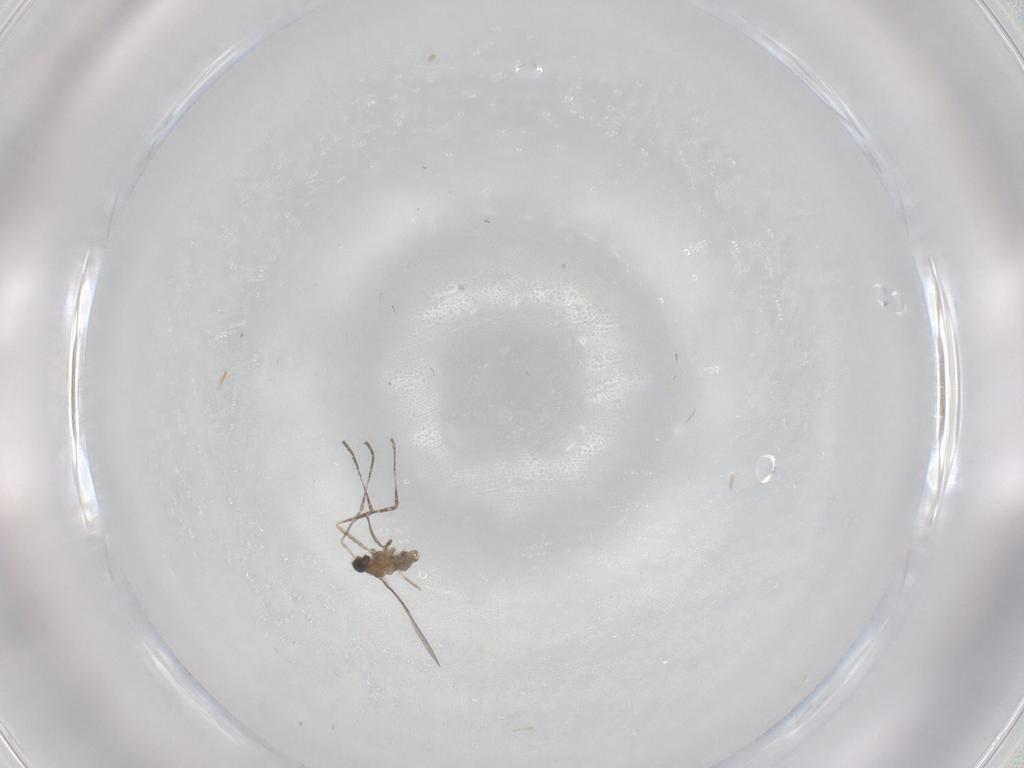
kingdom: Animalia
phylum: Arthropoda
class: Insecta
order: Diptera
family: Cecidomyiidae
